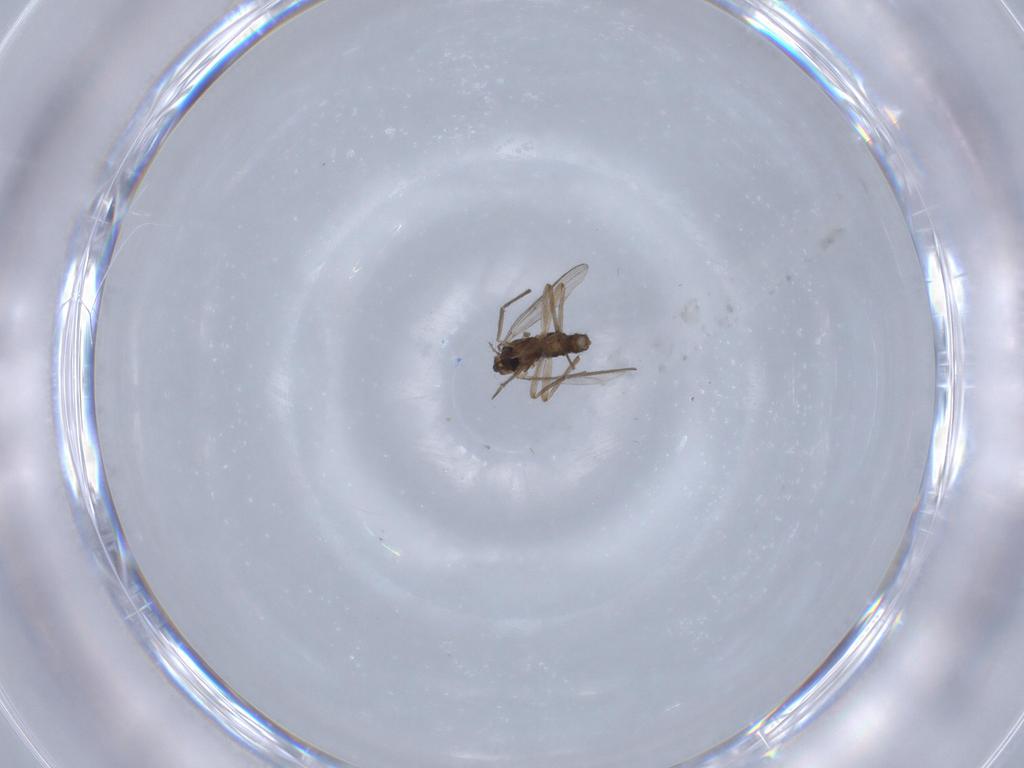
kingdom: Animalia
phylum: Arthropoda
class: Insecta
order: Diptera
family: Chironomidae
